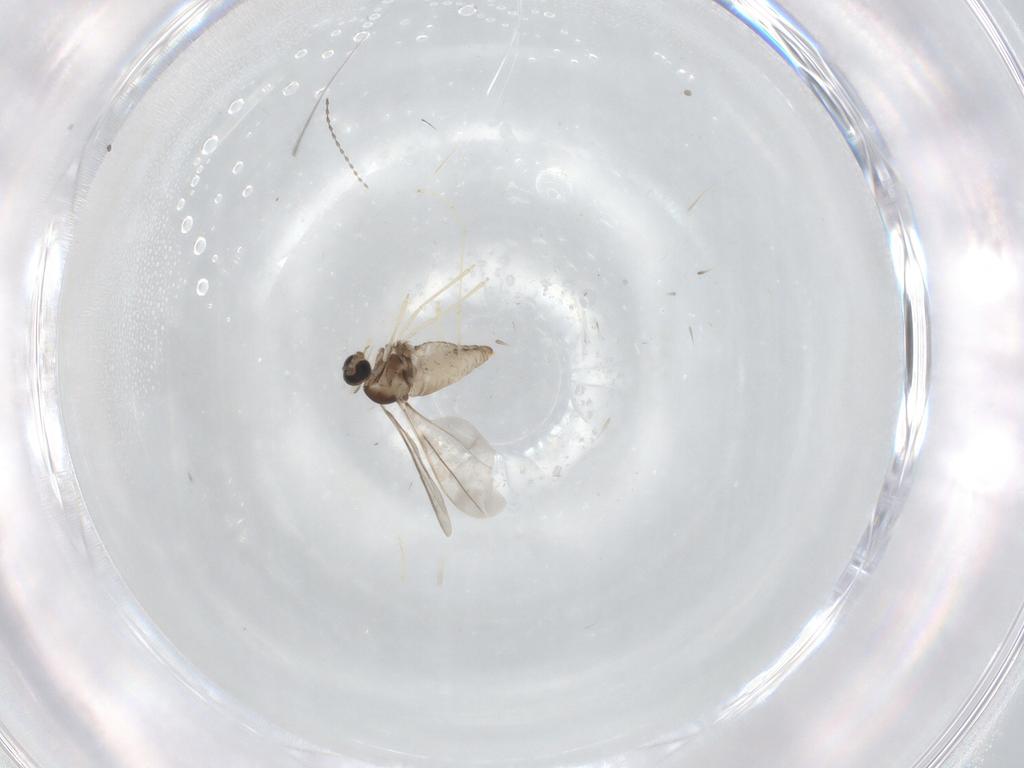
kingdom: Animalia
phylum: Arthropoda
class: Insecta
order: Diptera
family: Cecidomyiidae
